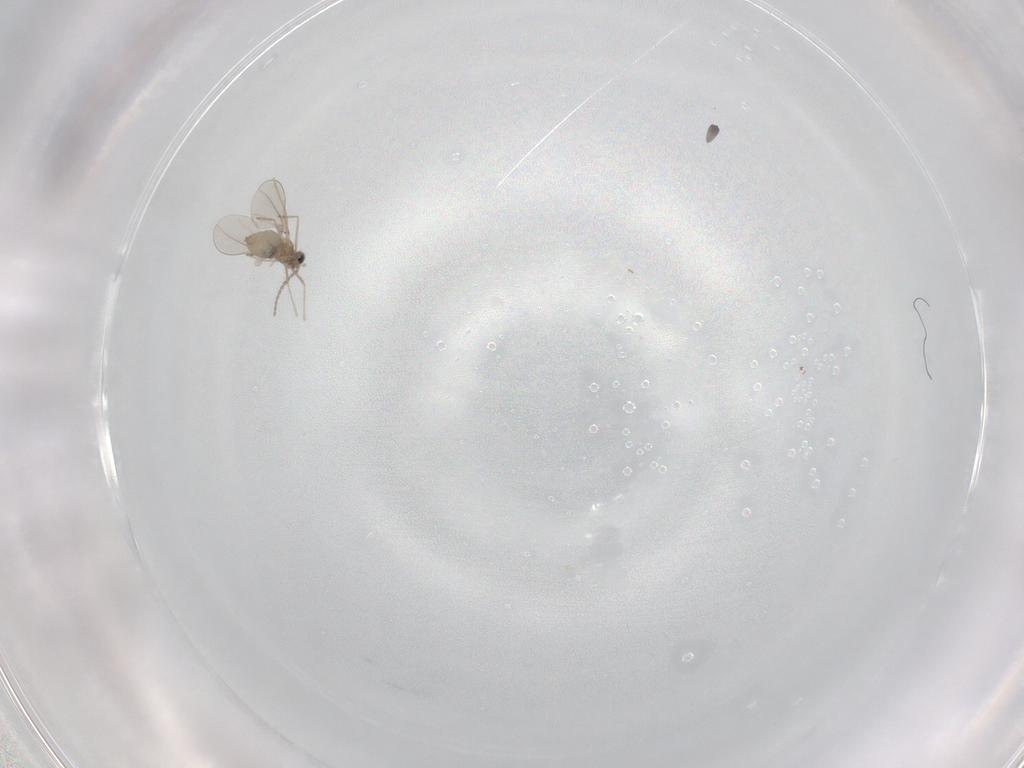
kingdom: Animalia
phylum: Arthropoda
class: Insecta
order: Diptera
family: Cecidomyiidae
